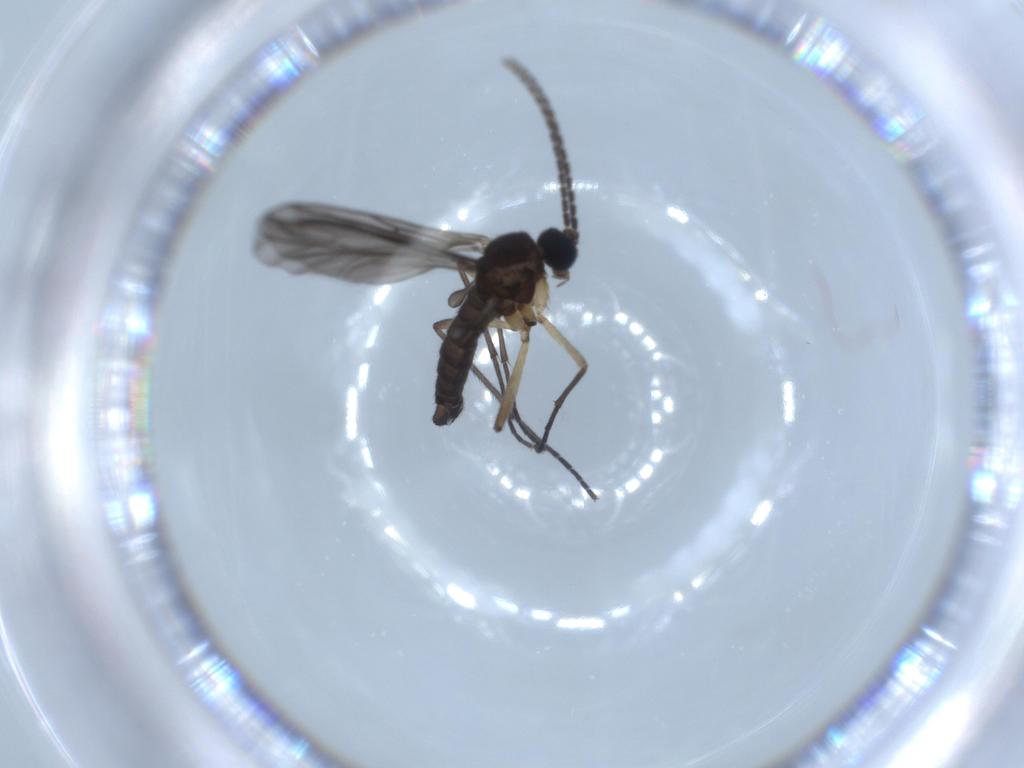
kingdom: Animalia
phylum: Arthropoda
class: Insecta
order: Diptera
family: Sciaridae
